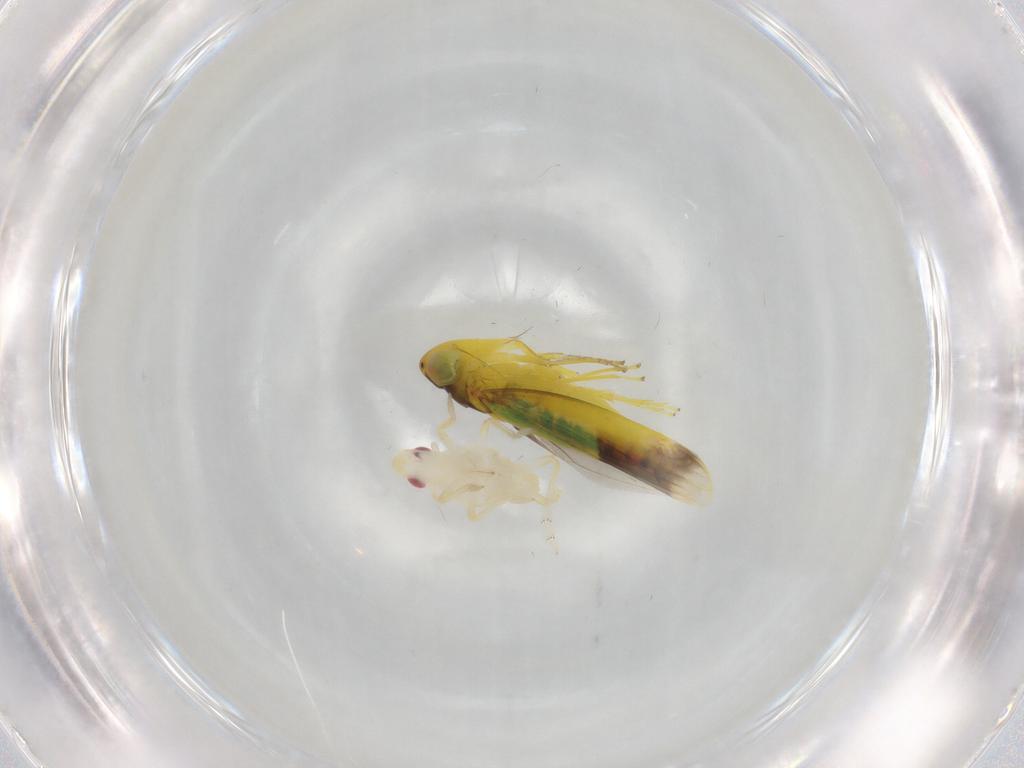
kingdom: Animalia
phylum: Arthropoda
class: Insecta
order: Hemiptera
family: Fulgoroidea_incertae_sedis
